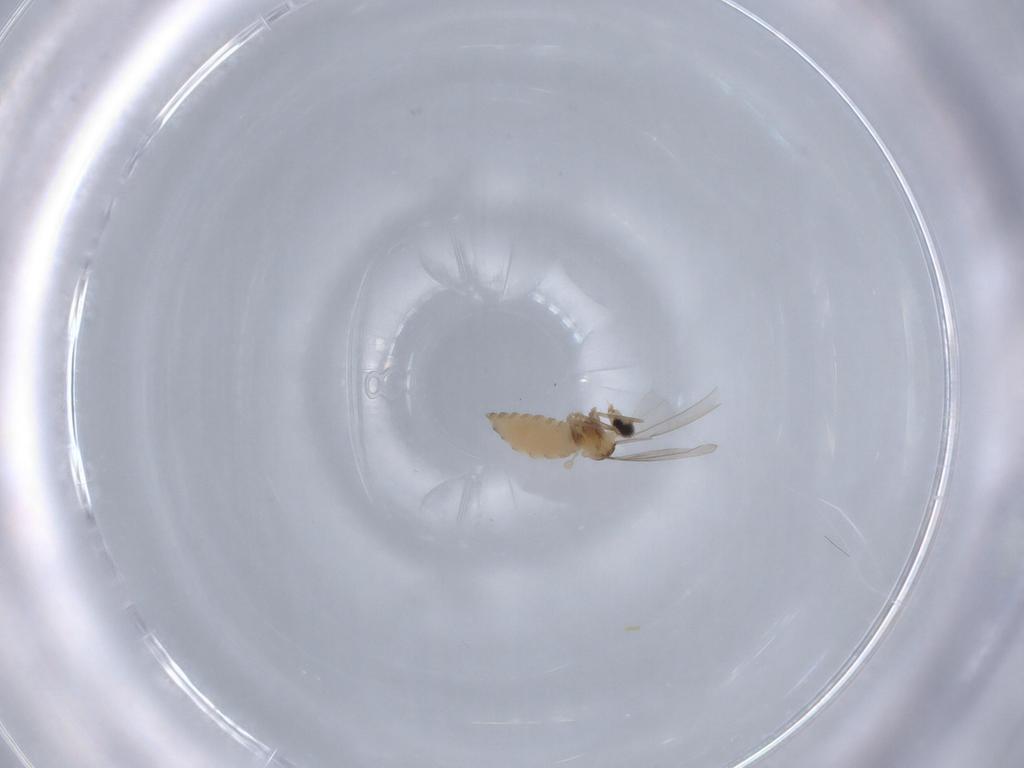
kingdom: Animalia
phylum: Arthropoda
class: Insecta
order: Diptera
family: Cecidomyiidae
